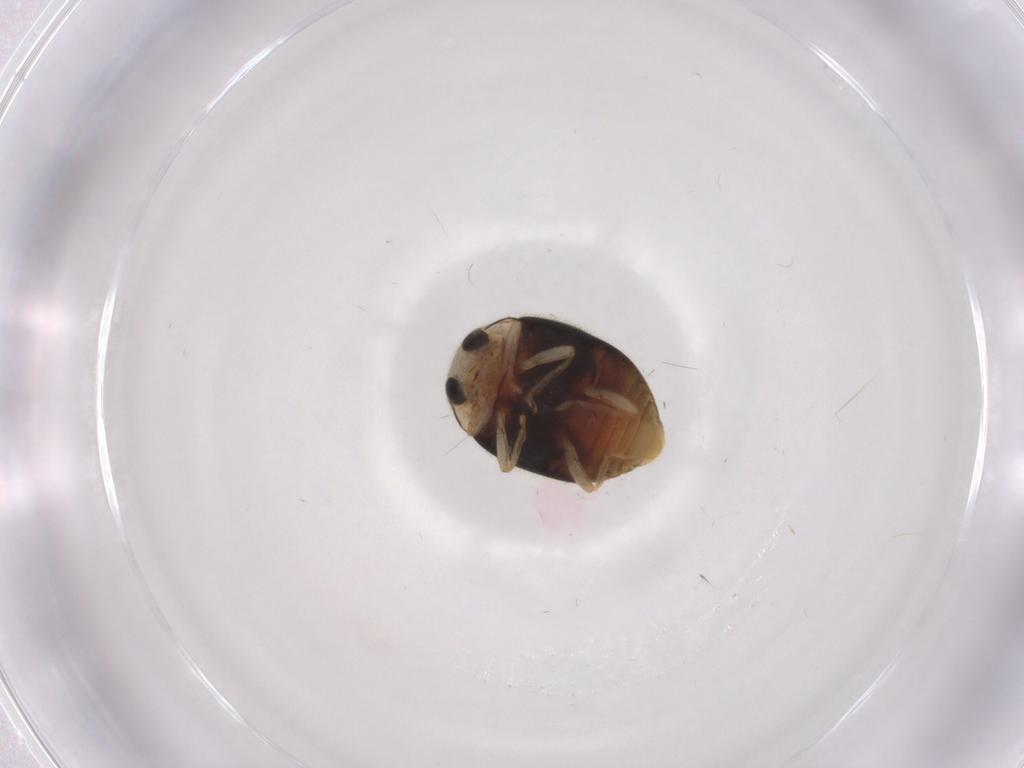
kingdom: Animalia
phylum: Arthropoda
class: Insecta
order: Coleoptera
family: Coccinellidae
